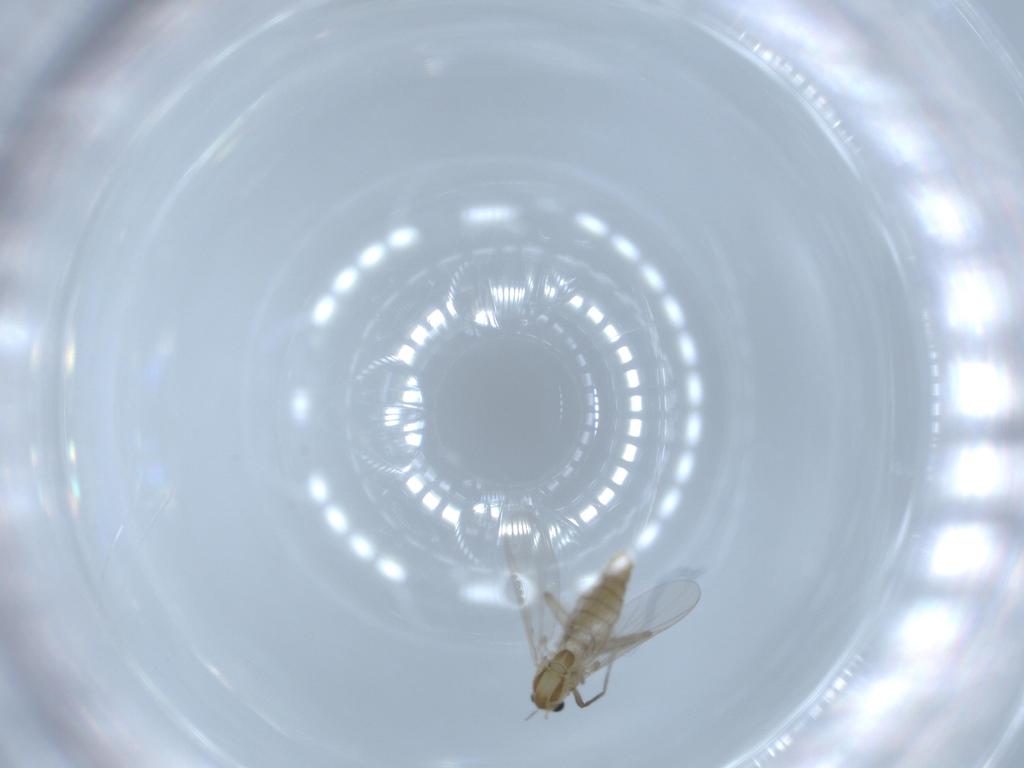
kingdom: Animalia
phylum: Arthropoda
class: Insecta
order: Diptera
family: Chironomidae
